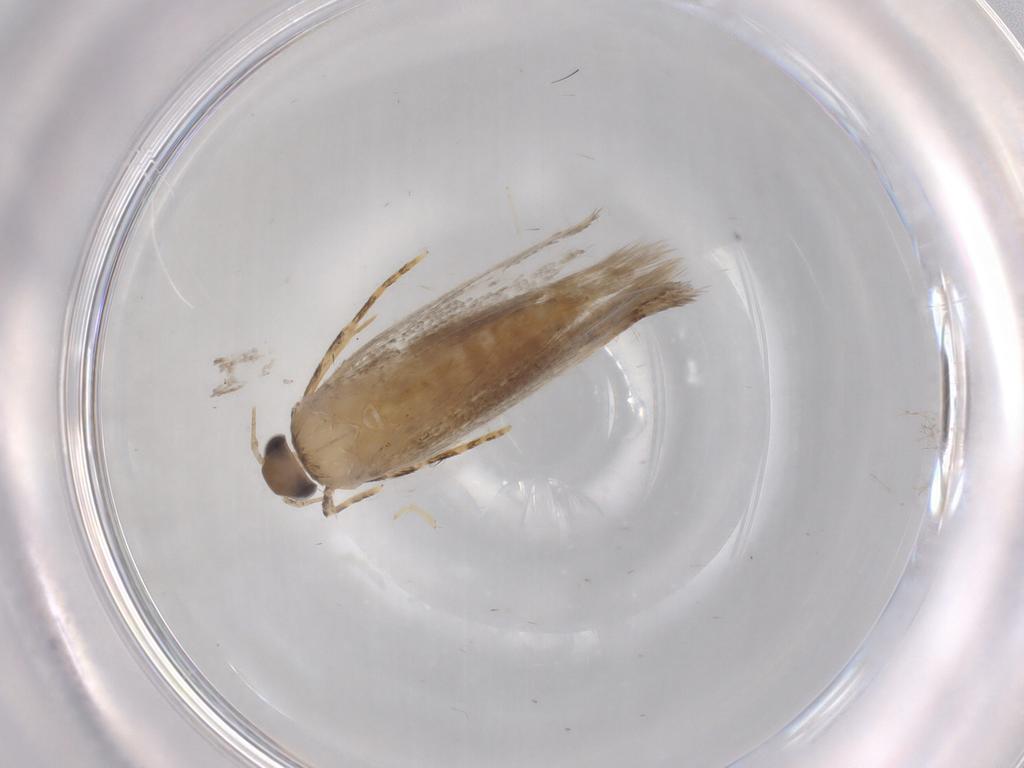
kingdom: Animalia
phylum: Arthropoda
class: Insecta
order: Lepidoptera
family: Autostichidae
